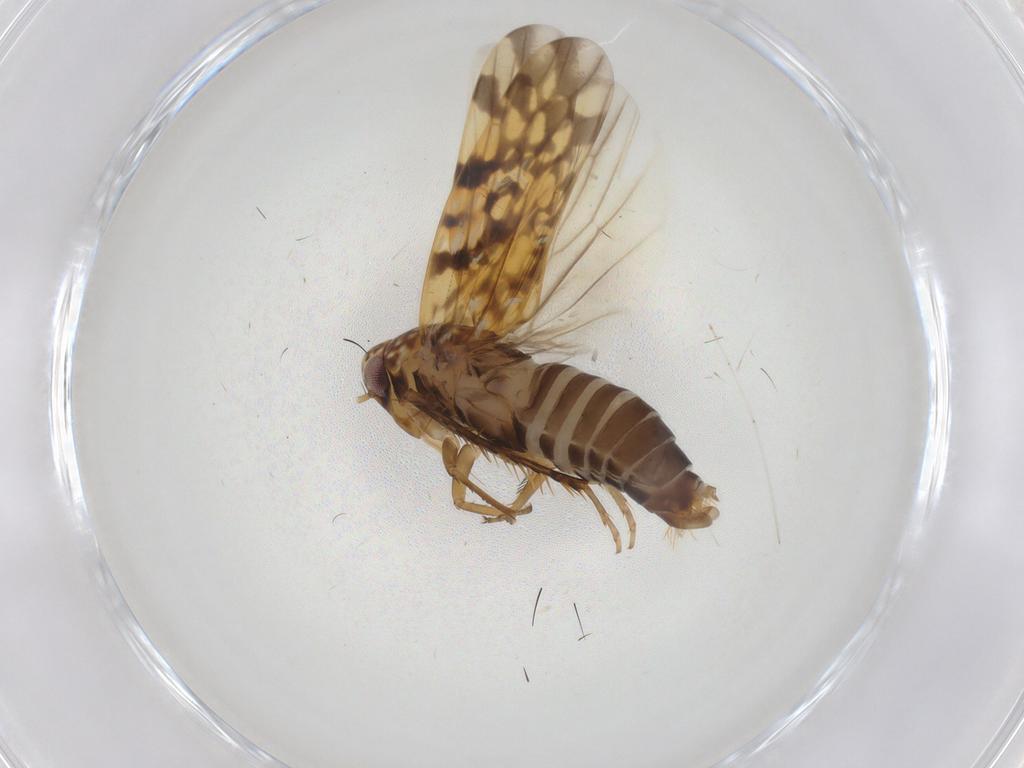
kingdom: Animalia
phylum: Arthropoda
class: Insecta
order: Hemiptera
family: Cicadellidae
